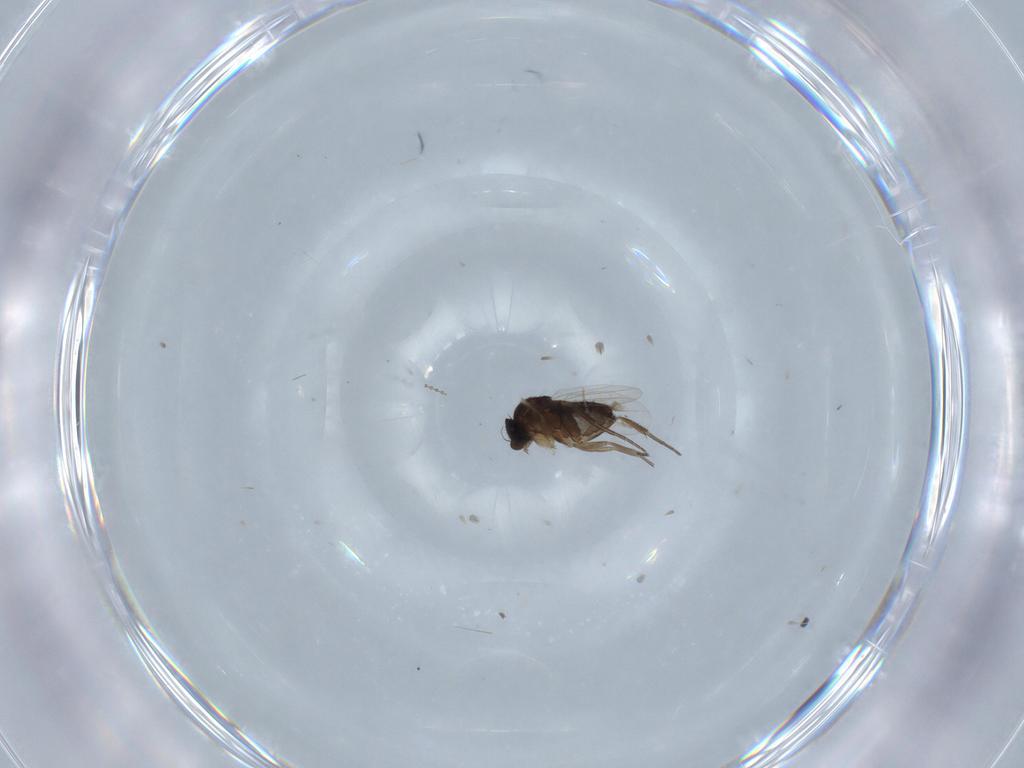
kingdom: Animalia
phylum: Arthropoda
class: Insecta
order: Diptera
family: Phoridae
